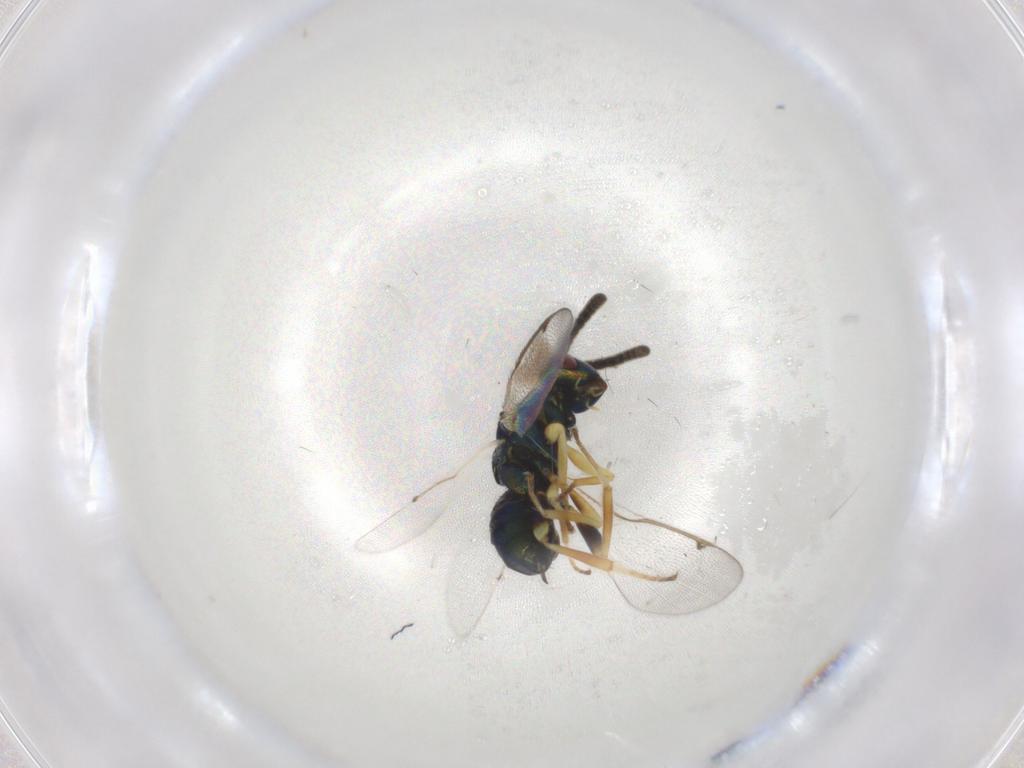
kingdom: Animalia
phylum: Arthropoda
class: Insecta
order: Hymenoptera
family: Torymidae
